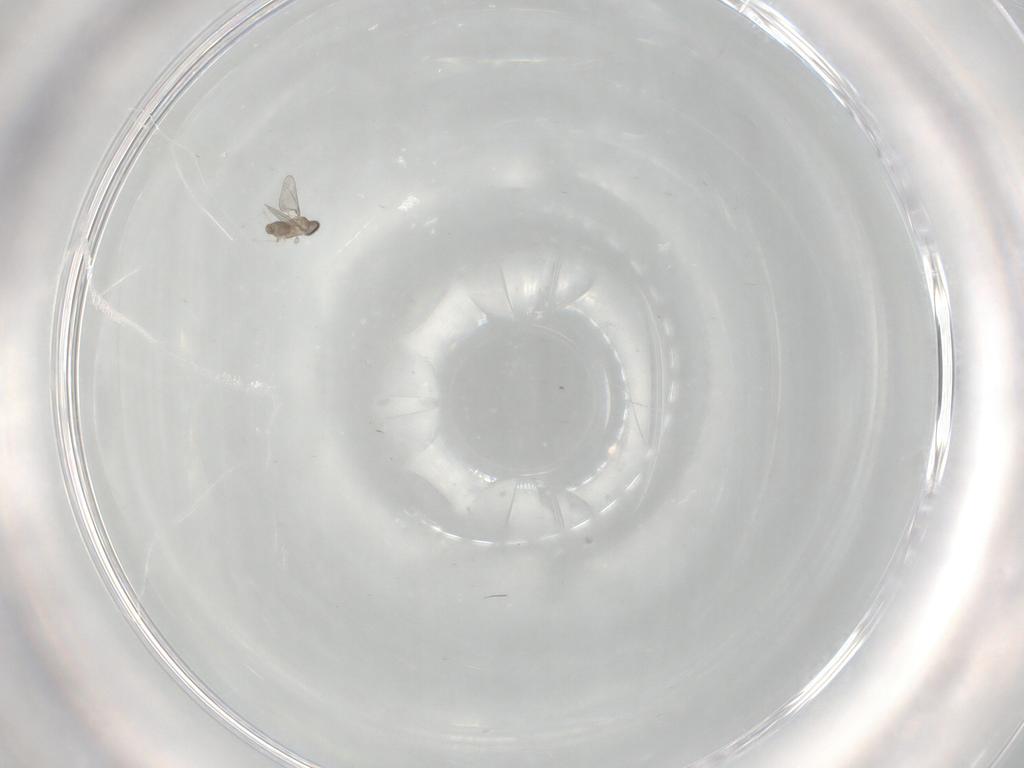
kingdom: Animalia
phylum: Arthropoda
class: Insecta
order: Diptera
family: Cecidomyiidae
